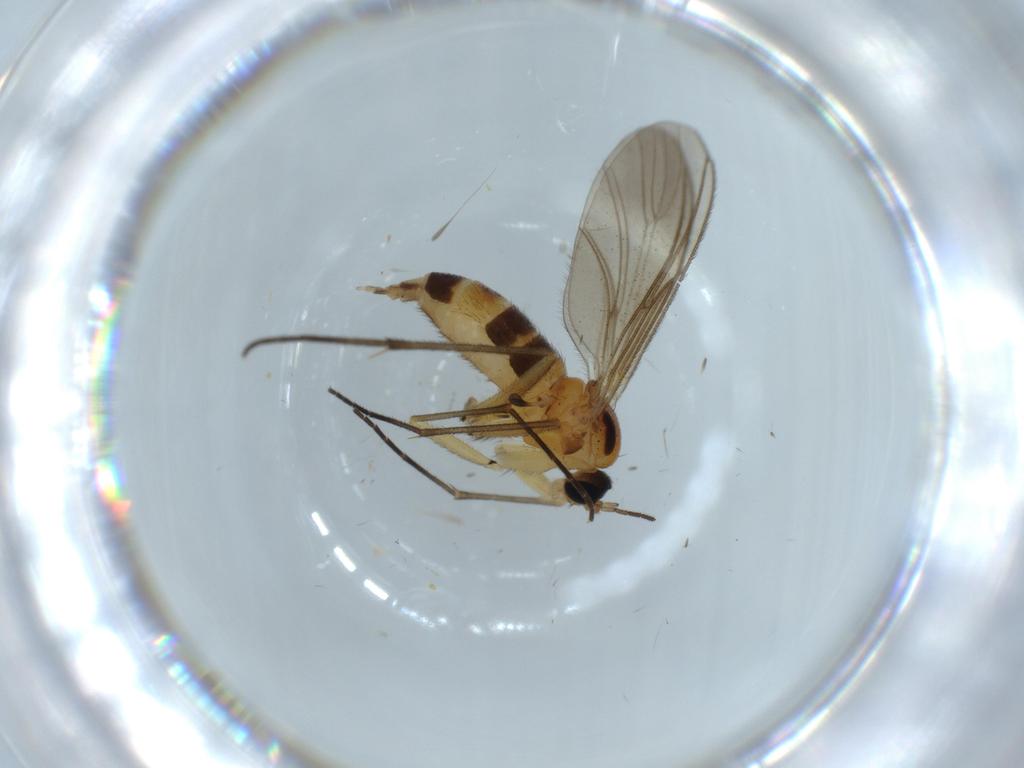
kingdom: Animalia
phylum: Arthropoda
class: Insecta
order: Diptera
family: Sciaridae
